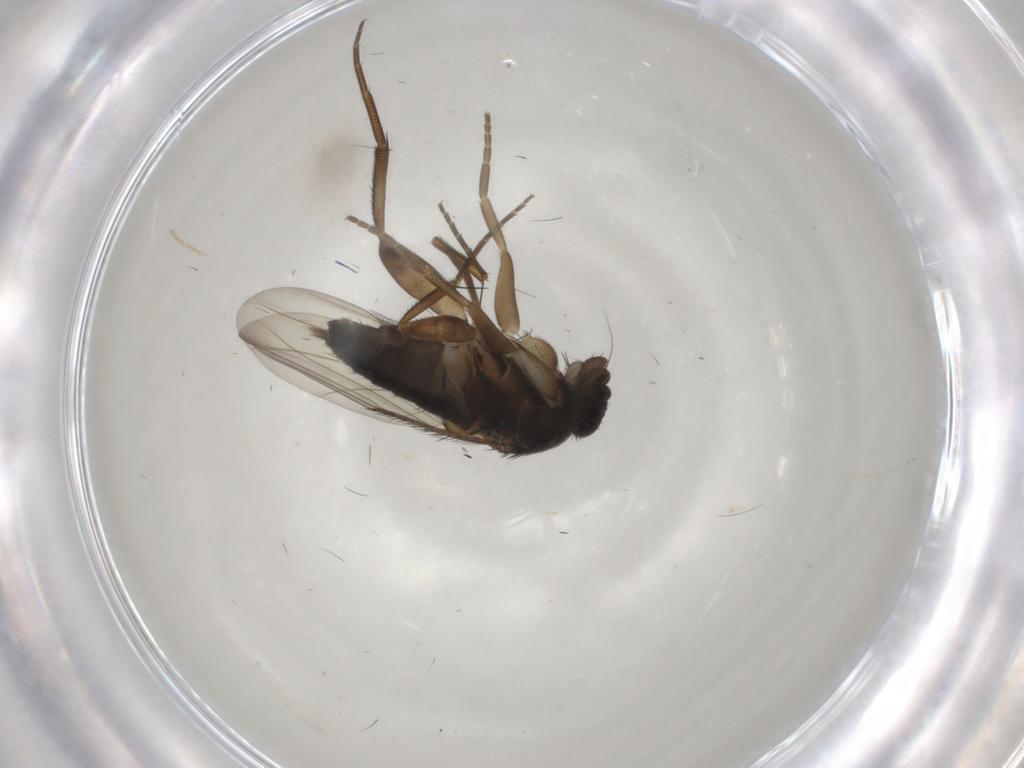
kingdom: Animalia
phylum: Arthropoda
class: Insecta
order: Diptera
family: Phoridae
